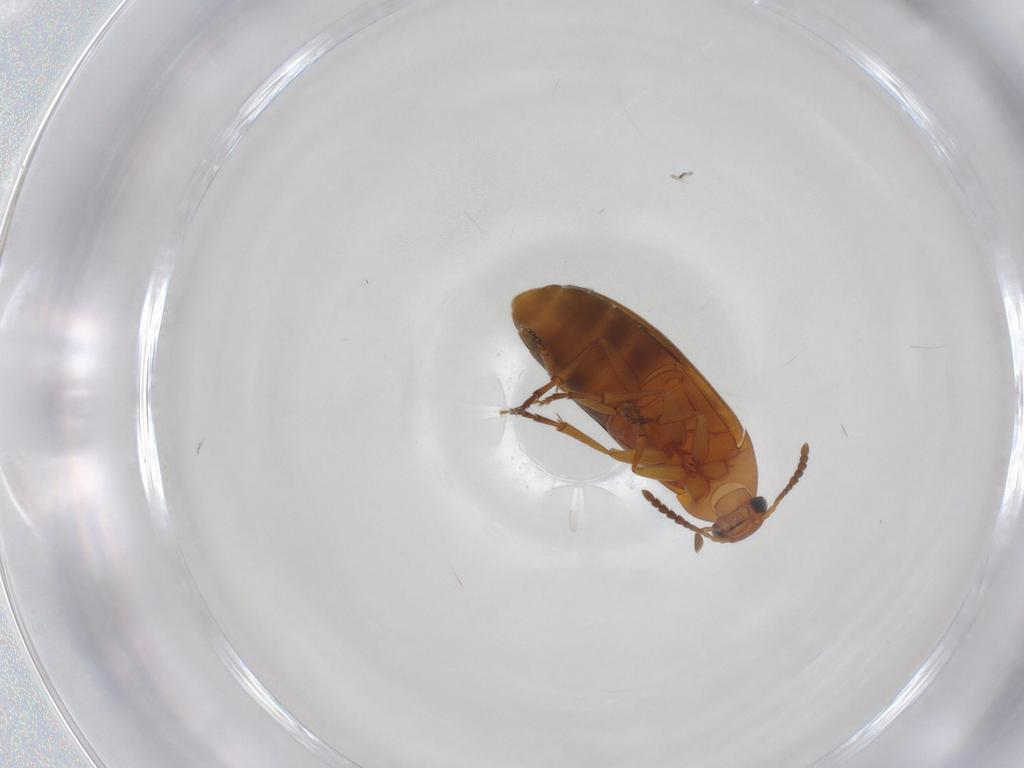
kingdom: Animalia
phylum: Arthropoda
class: Insecta
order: Coleoptera
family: Scraptiidae
